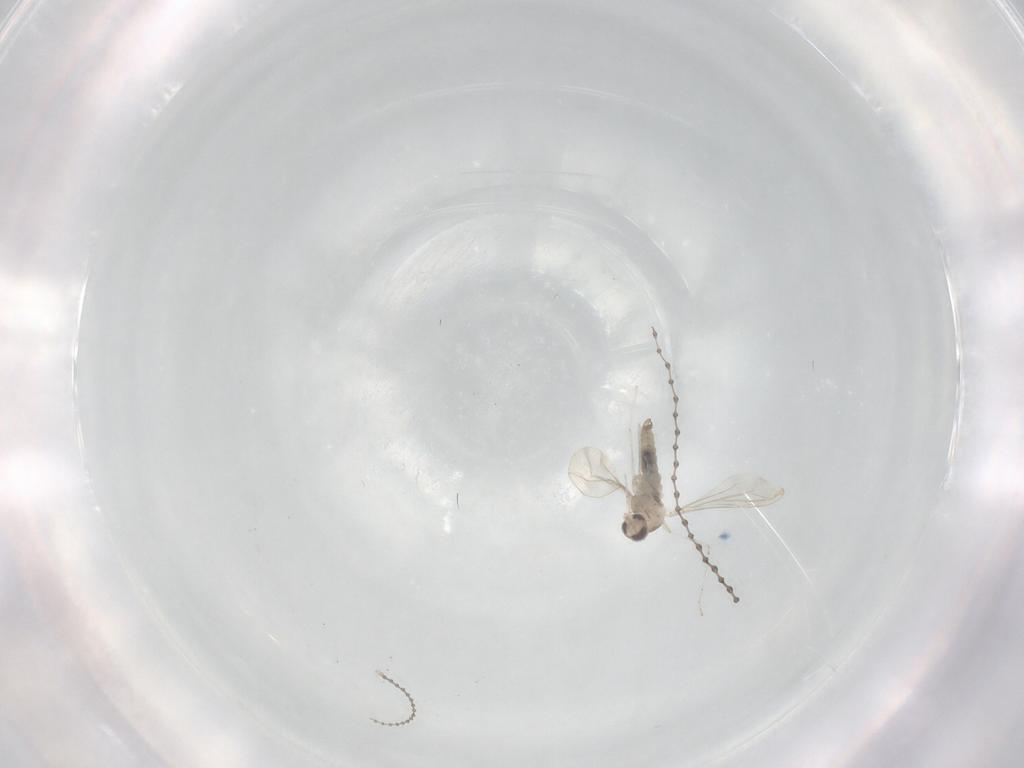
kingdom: Animalia
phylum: Arthropoda
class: Insecta
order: Diptera
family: Cecidomyiidae
